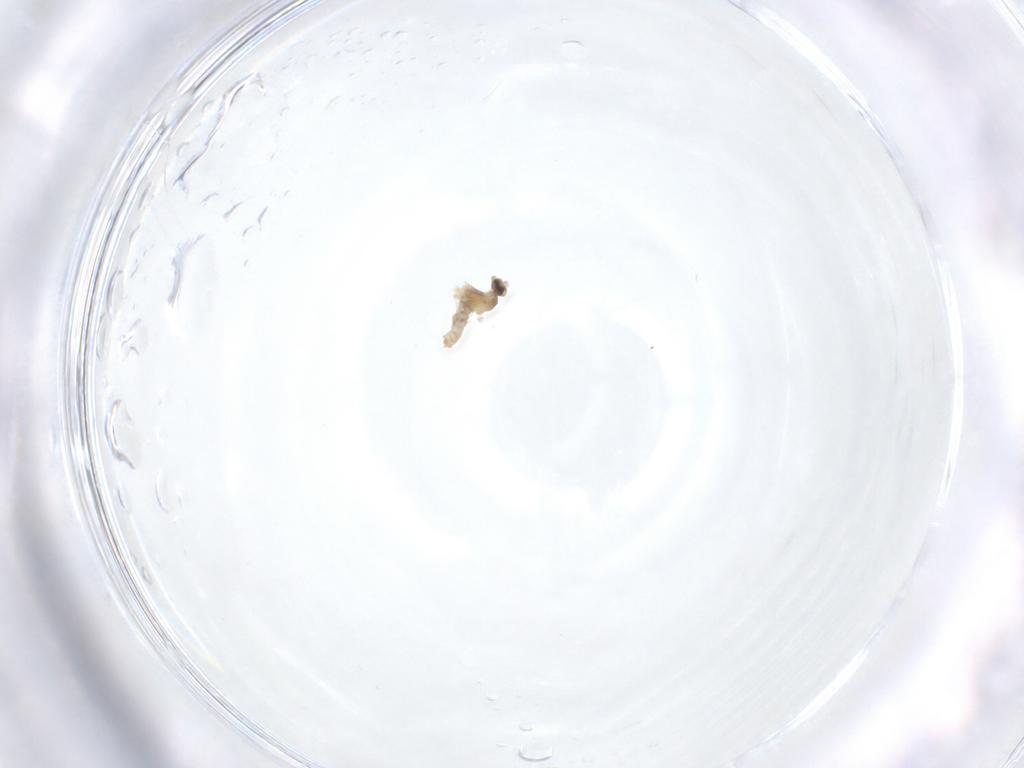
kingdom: Animalia
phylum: Arthropoda
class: Insecta
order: Diptera
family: Cecidomyiidae
